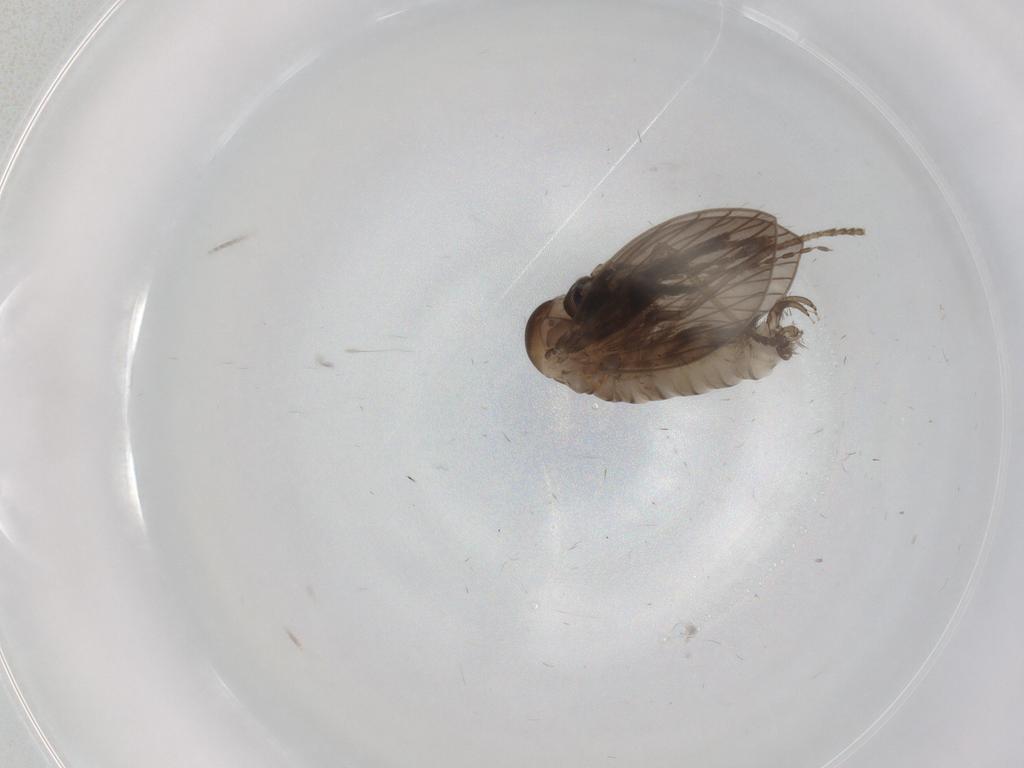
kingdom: Animalia
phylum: Arthropoda
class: Insecta
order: Diptera
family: Psychodidae
